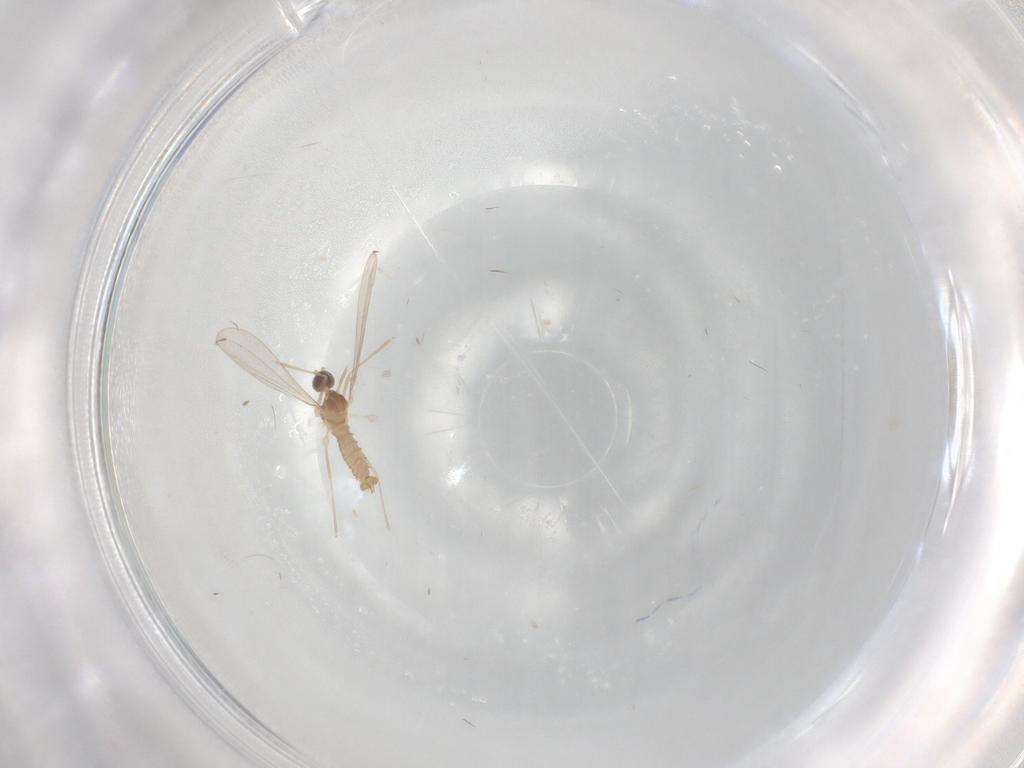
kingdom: Animalia
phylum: Arthropoda
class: Insecta
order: Diptera
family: Cecidomyiidae
